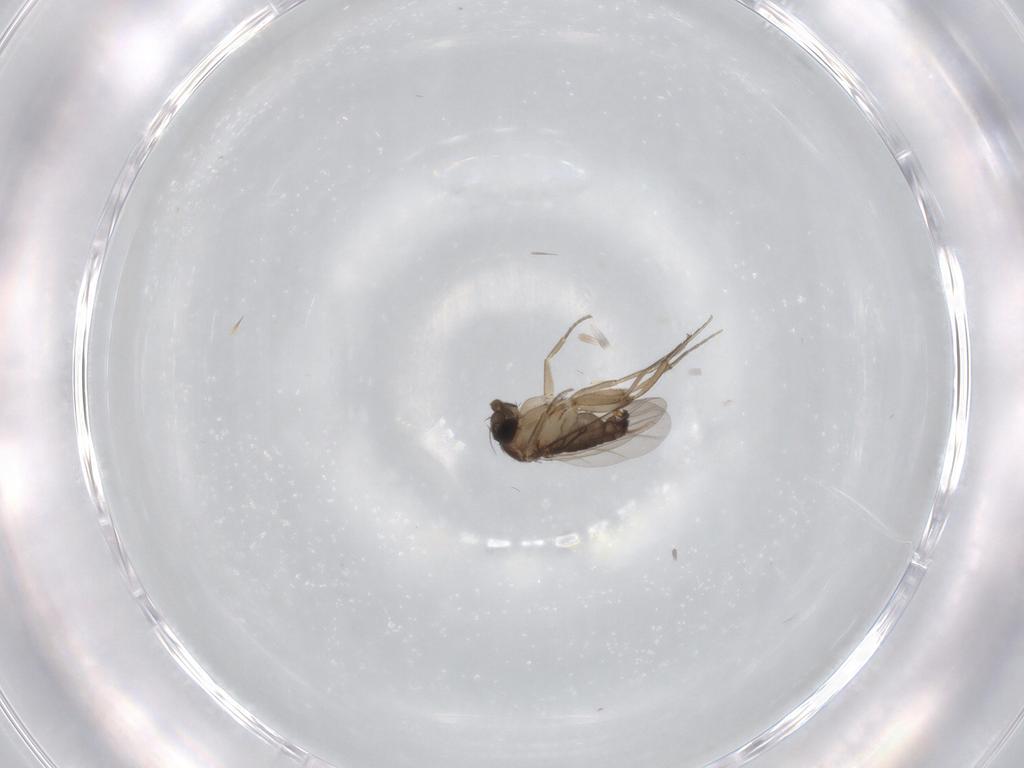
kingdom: Animalia
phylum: Arthropoda
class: Insecta
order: Diptera
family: Phoridae
